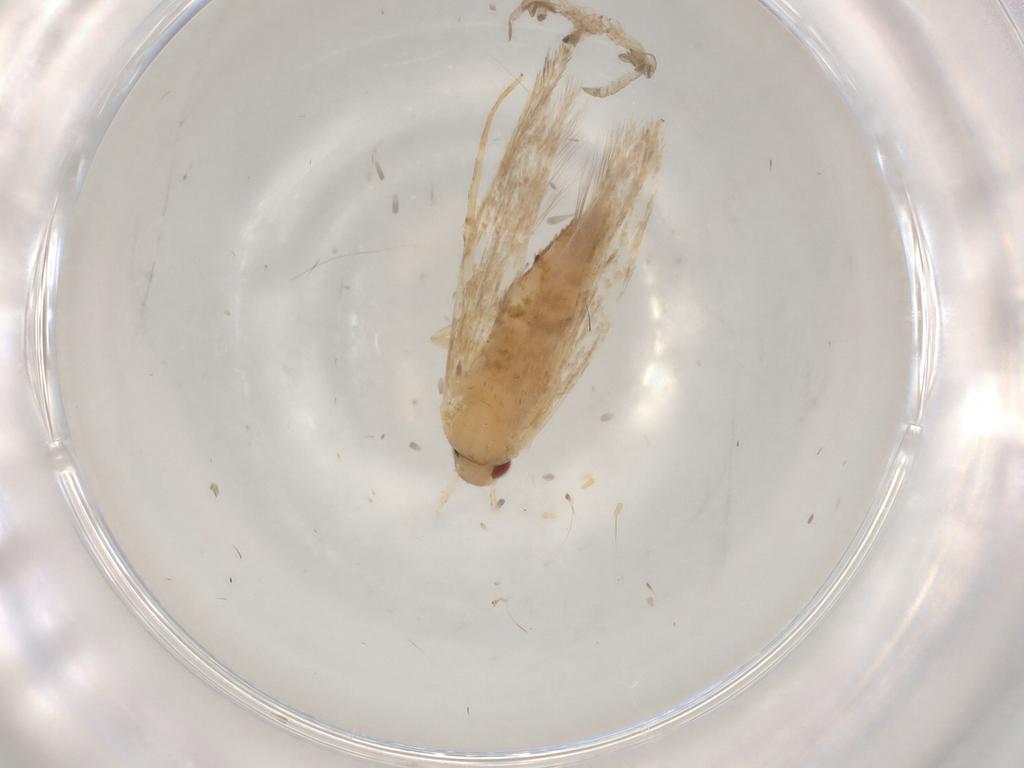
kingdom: Animalia
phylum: Arthropoda
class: Insecta
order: Lepidoptera
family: Cosmopterigidae
